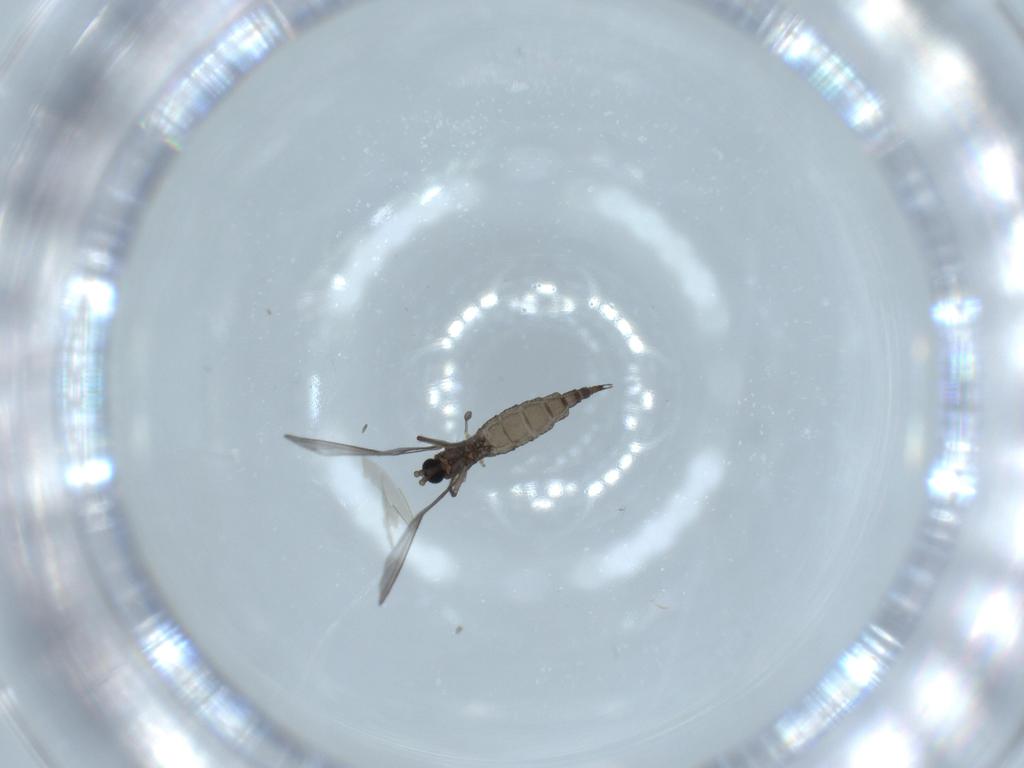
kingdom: Animalia
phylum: Arthropoda
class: Insecta
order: Diptera
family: Sciaridae
